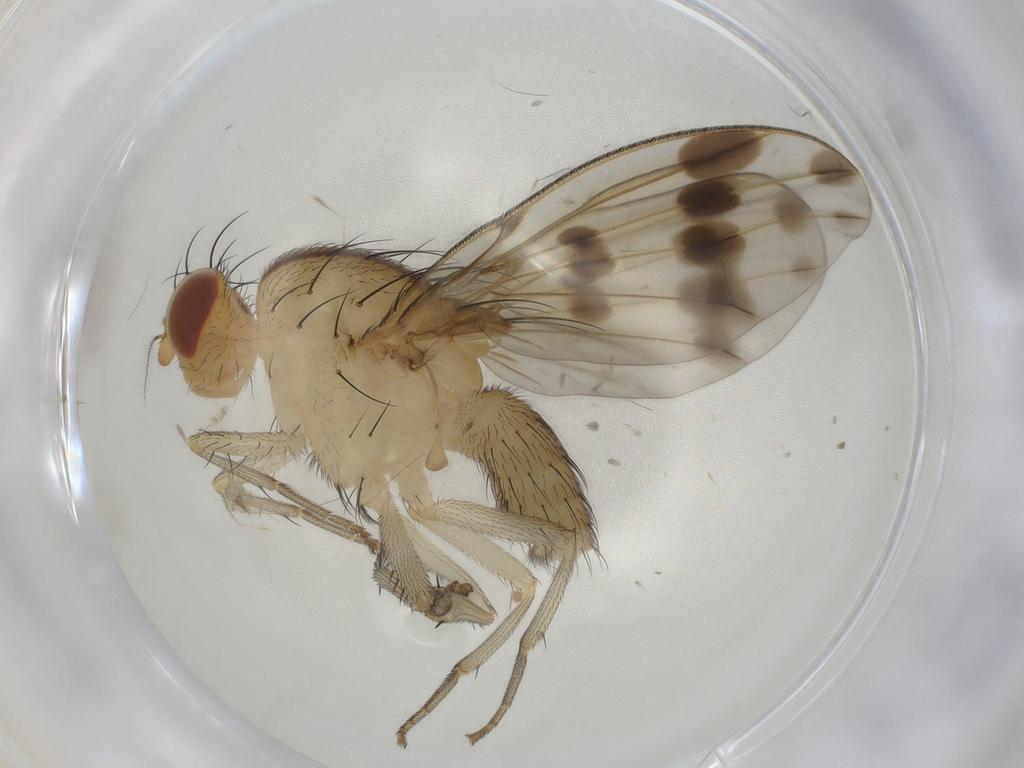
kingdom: Animalia
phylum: Arthropoda
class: Insecta
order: Diptera
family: Lauxaniidae
